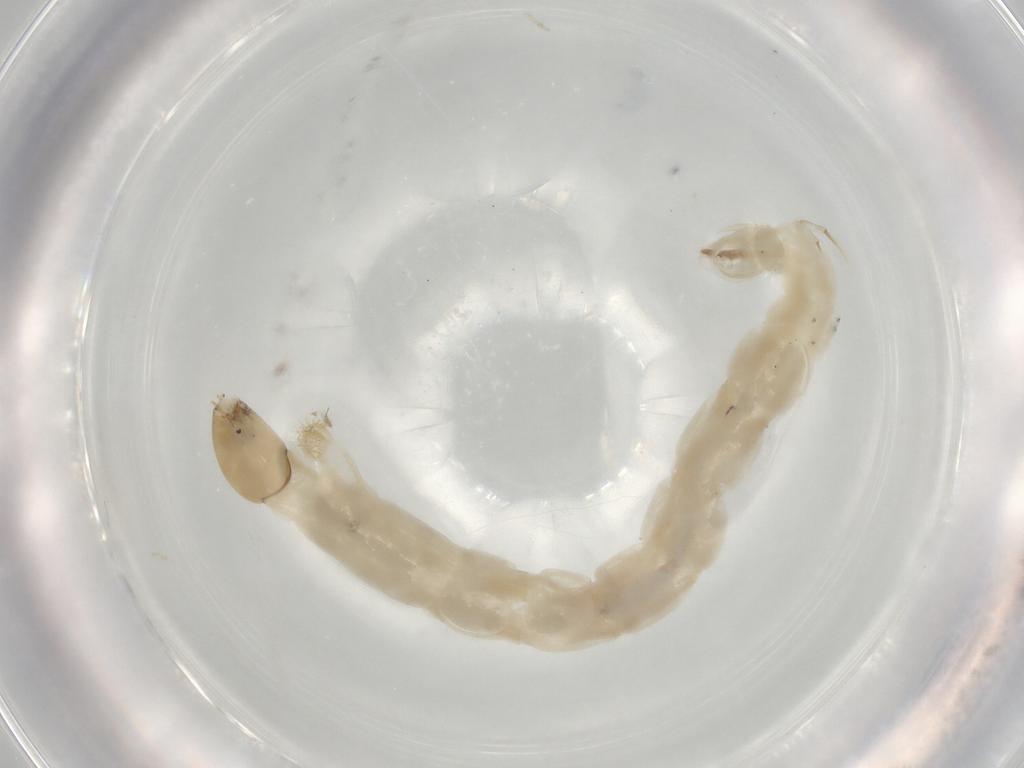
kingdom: Animalia
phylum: Arthropoda
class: Insecta
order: Diptera
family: Chironomidae
